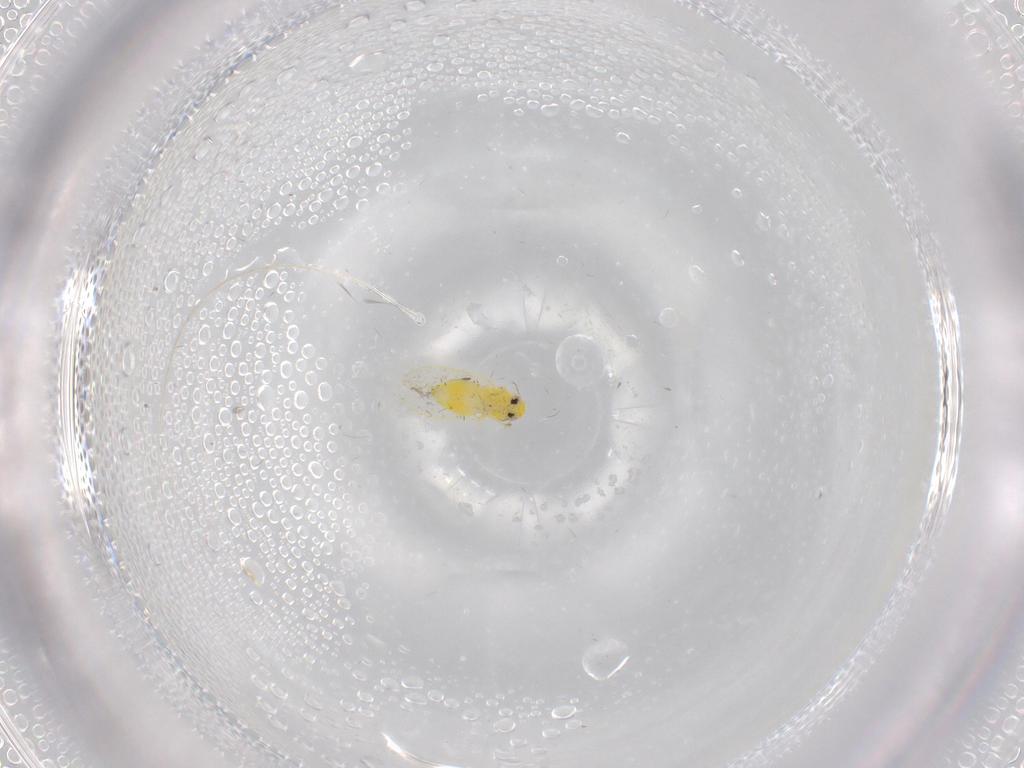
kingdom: Animalia
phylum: Arthropoda
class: Insecta
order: Hemiptera
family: Aleyrodidae
